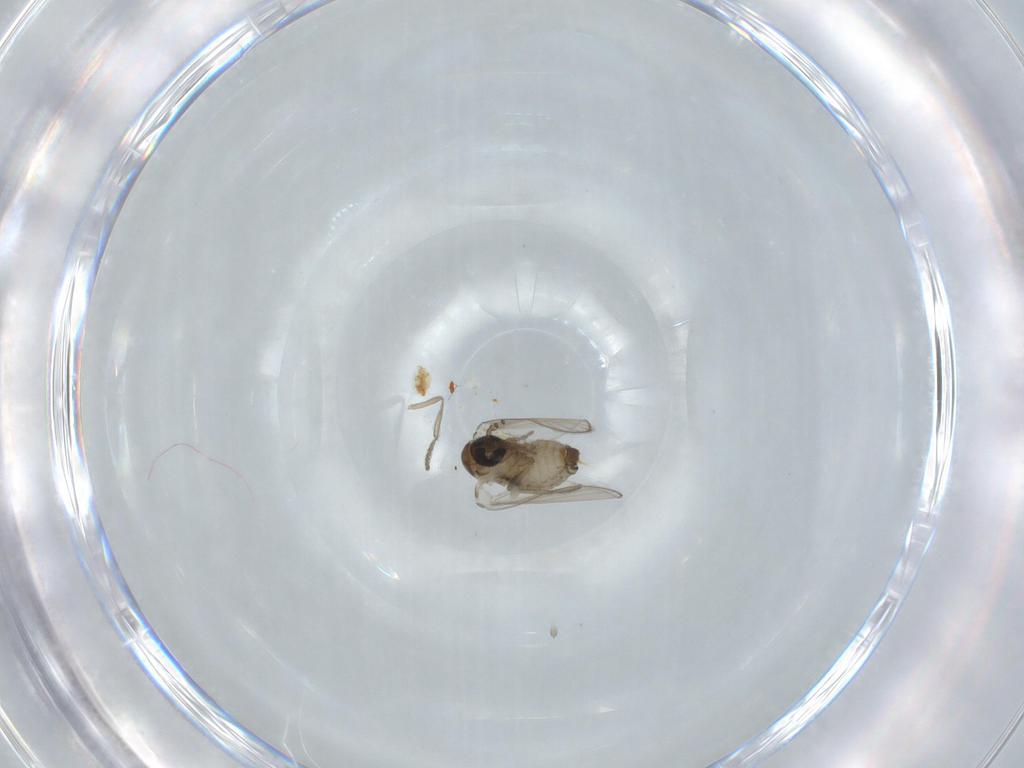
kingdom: Animalia
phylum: Arthropoda
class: Insecta
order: Diptera
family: Psychodidae
